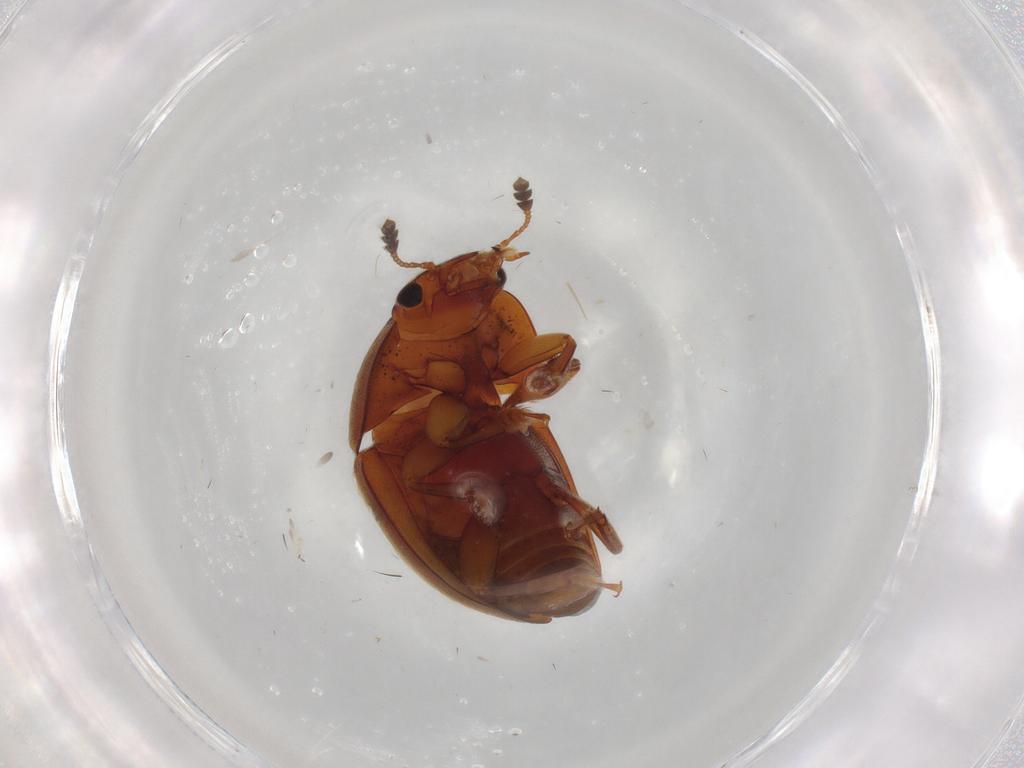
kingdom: Animalia
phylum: Arthropoda
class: Insecta
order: Coleoptera
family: Nitidulidae
